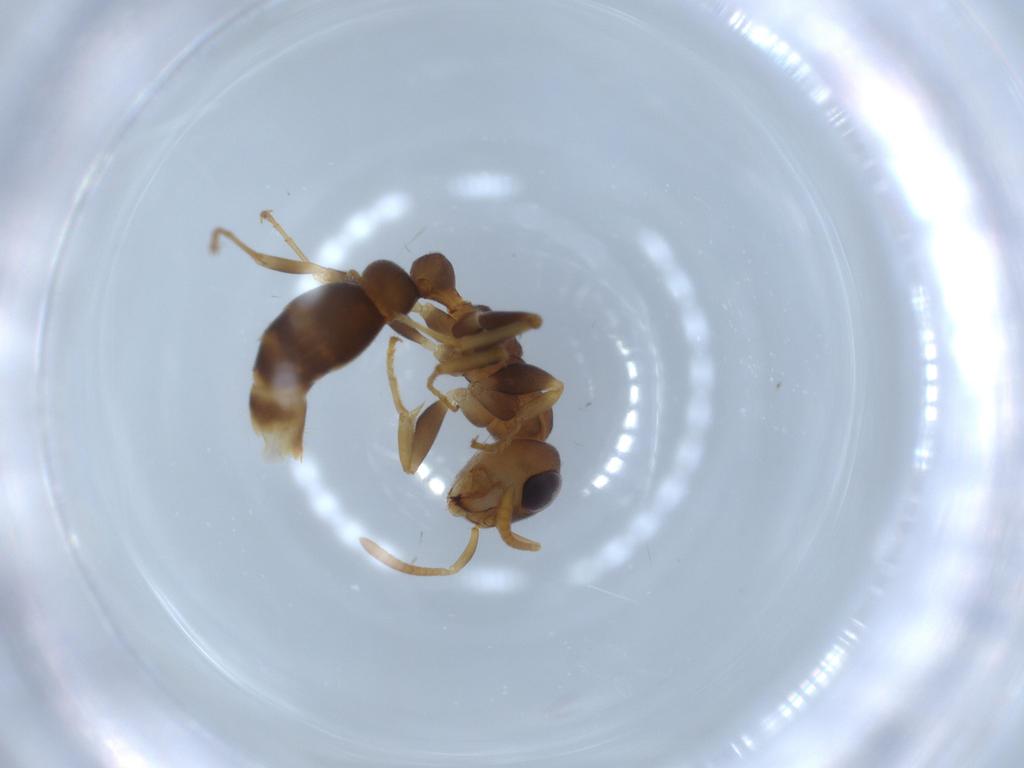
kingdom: Animalia
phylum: Arthropoda
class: Insecta
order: Hymenoptera
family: Formicidae
